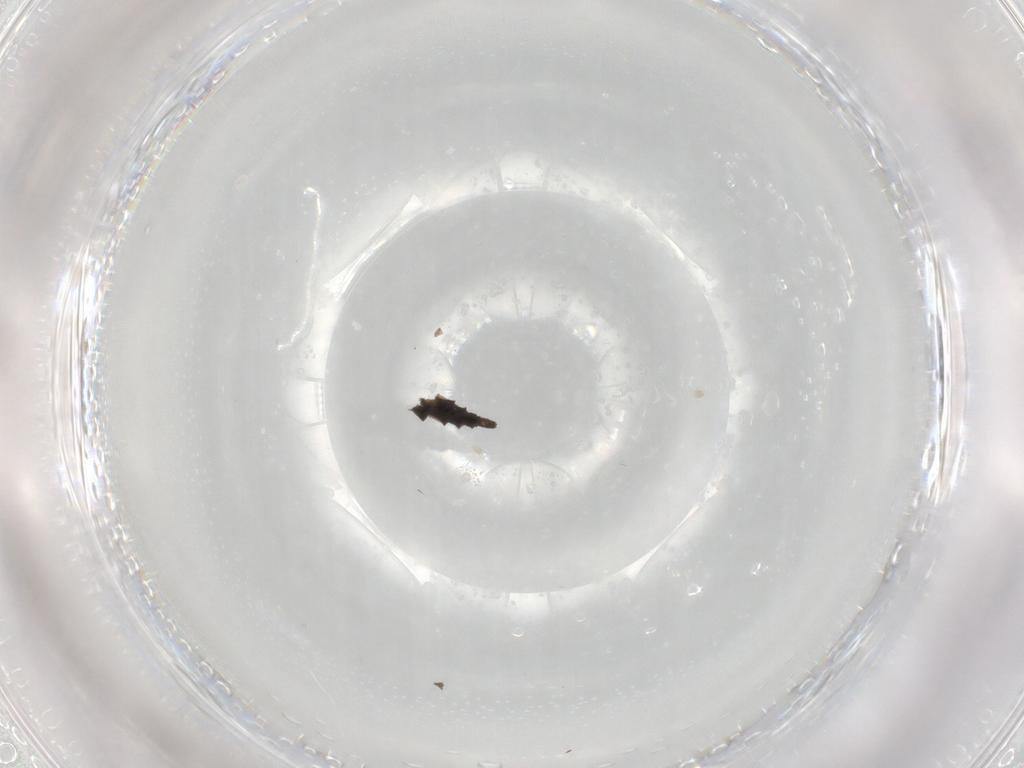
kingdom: Animalia
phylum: Arthropoda
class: Insecta
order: Diptera
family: Sciaridae
